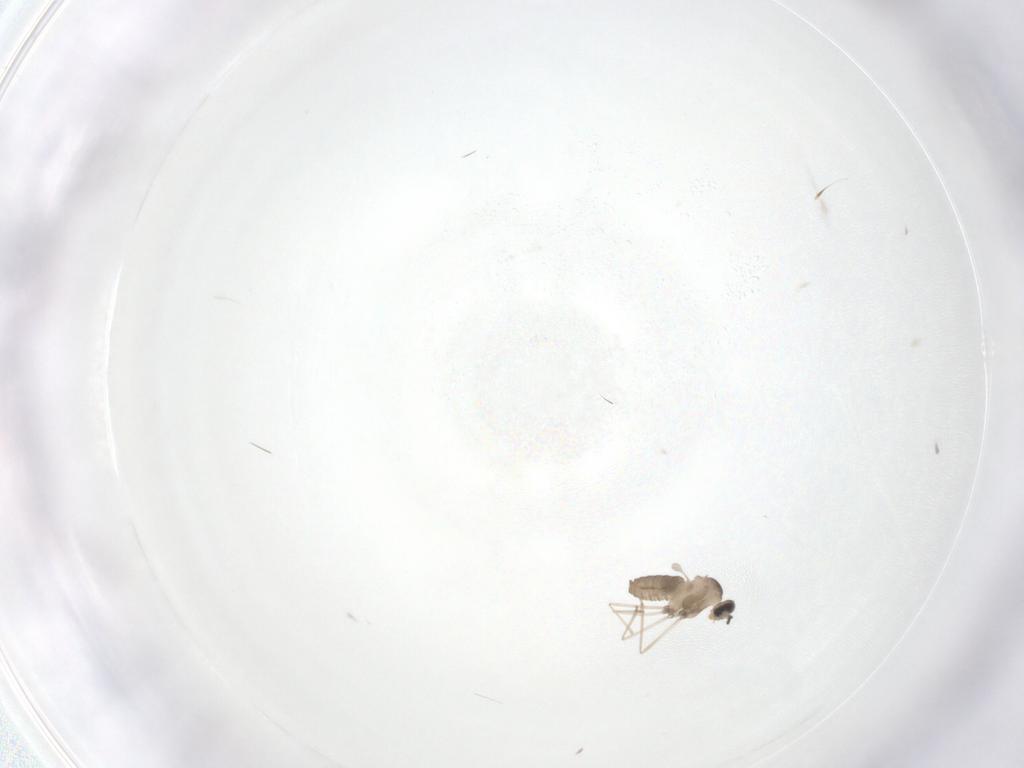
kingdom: Animalia
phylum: Arthropoda
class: Insecta
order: Diptera
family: Cecidomyiidae
